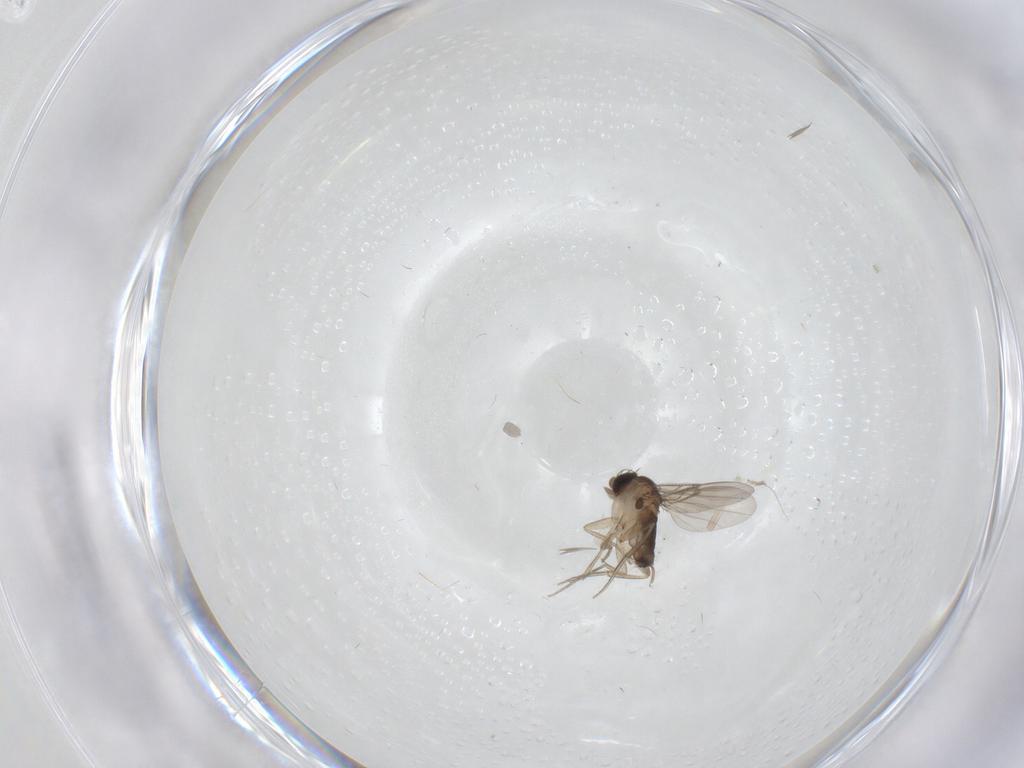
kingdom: Animalia
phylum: Arthropoda
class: Insecta
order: Diptera
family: Phoridae
